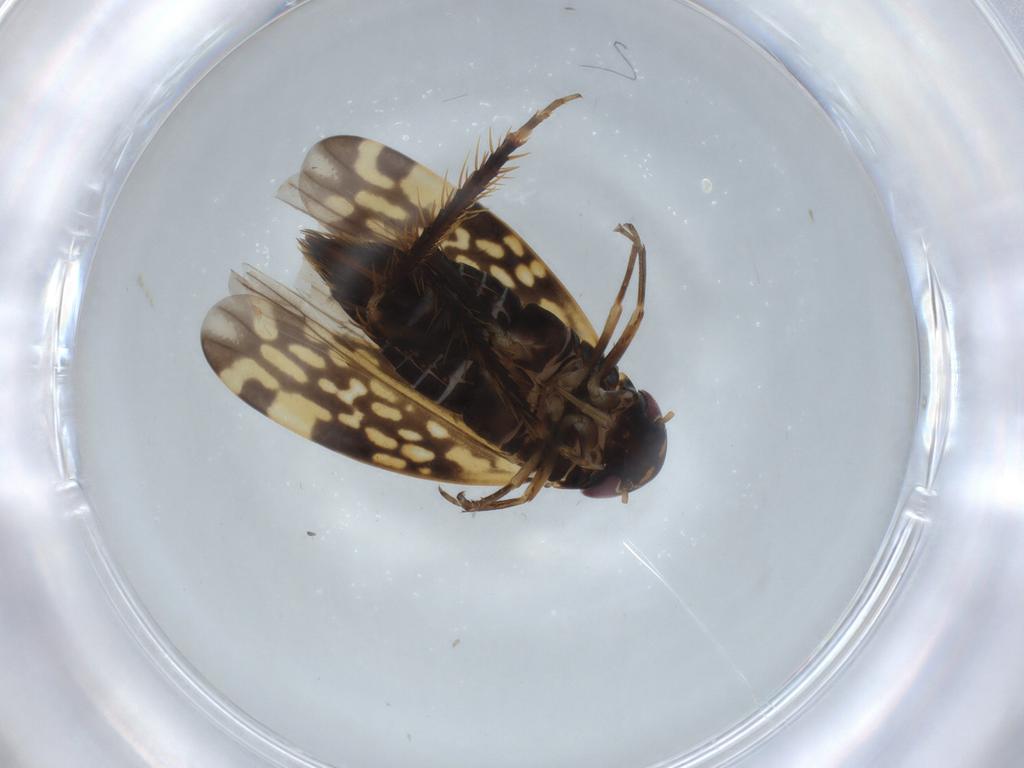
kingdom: Animalia
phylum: Arthropoda
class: Insecta
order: Hemiptera
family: Cicadellidae
